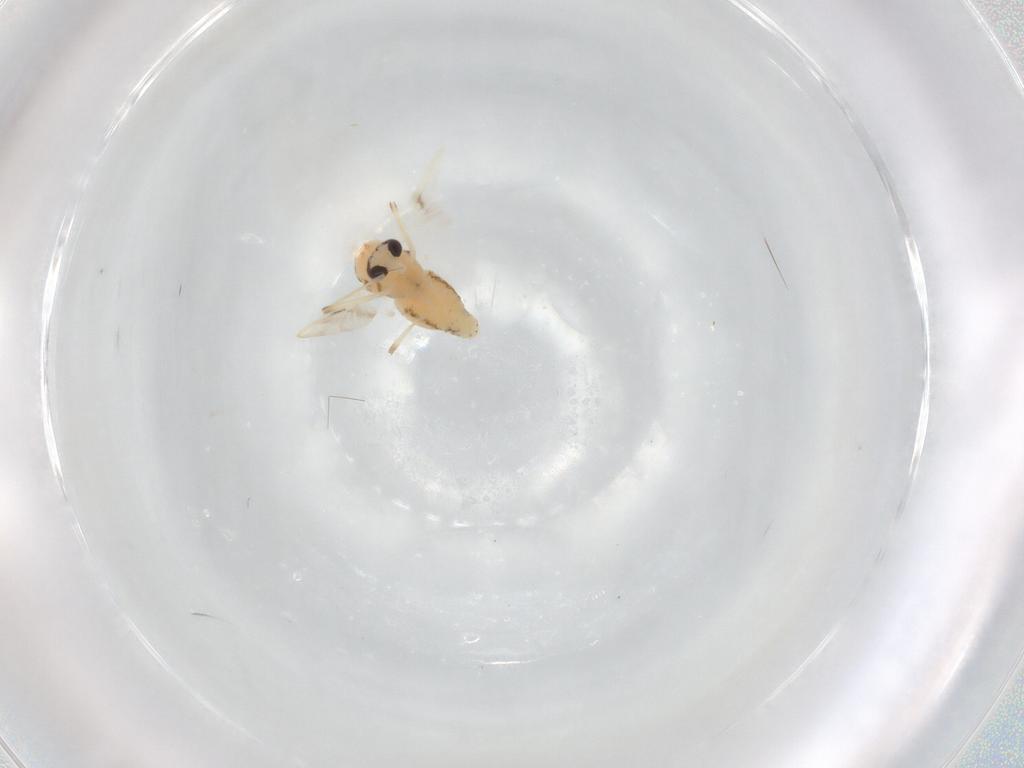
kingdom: Animalia
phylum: Arthropoda
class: Insecta
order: Diptera
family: Chironomidae
